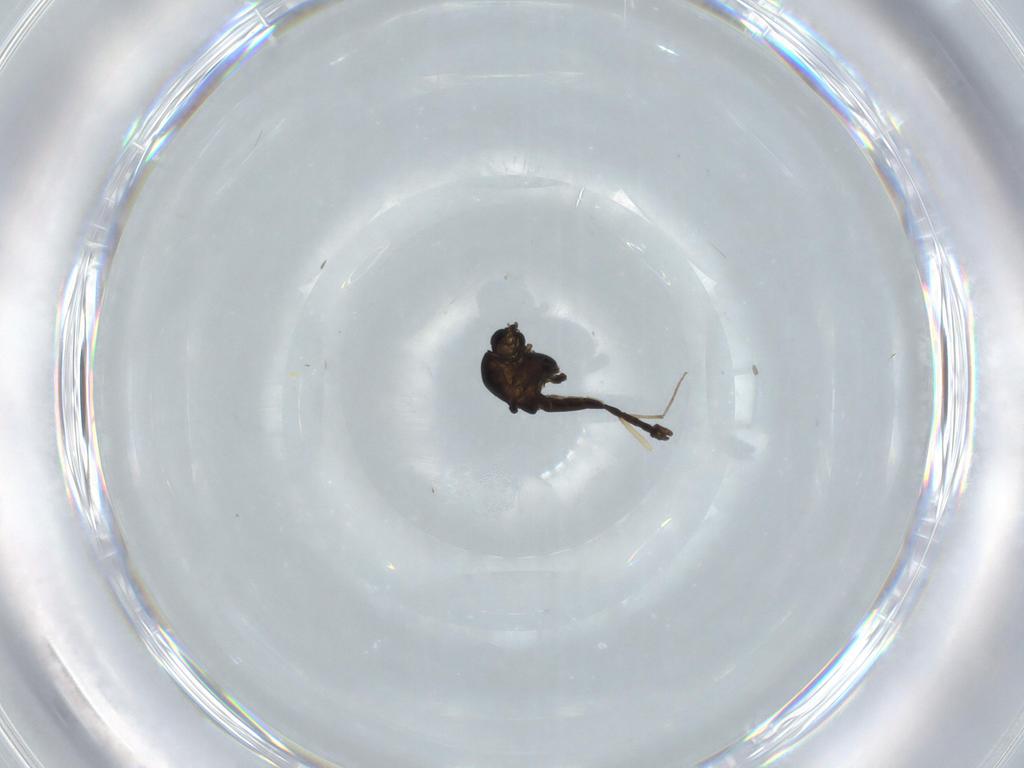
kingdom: Animalia
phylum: Arthropoda
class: Insecta
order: Diptera
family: Chironomidae
